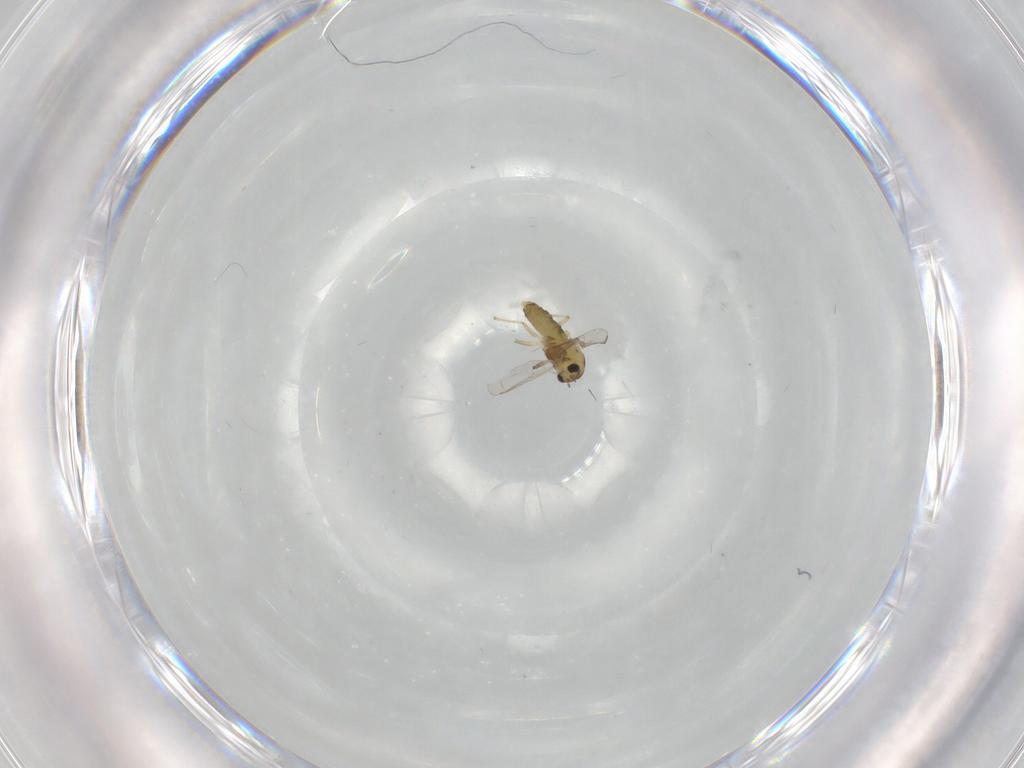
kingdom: Animalia
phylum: Arthropoda
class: Insecta
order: Diptera
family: Chironomidae
